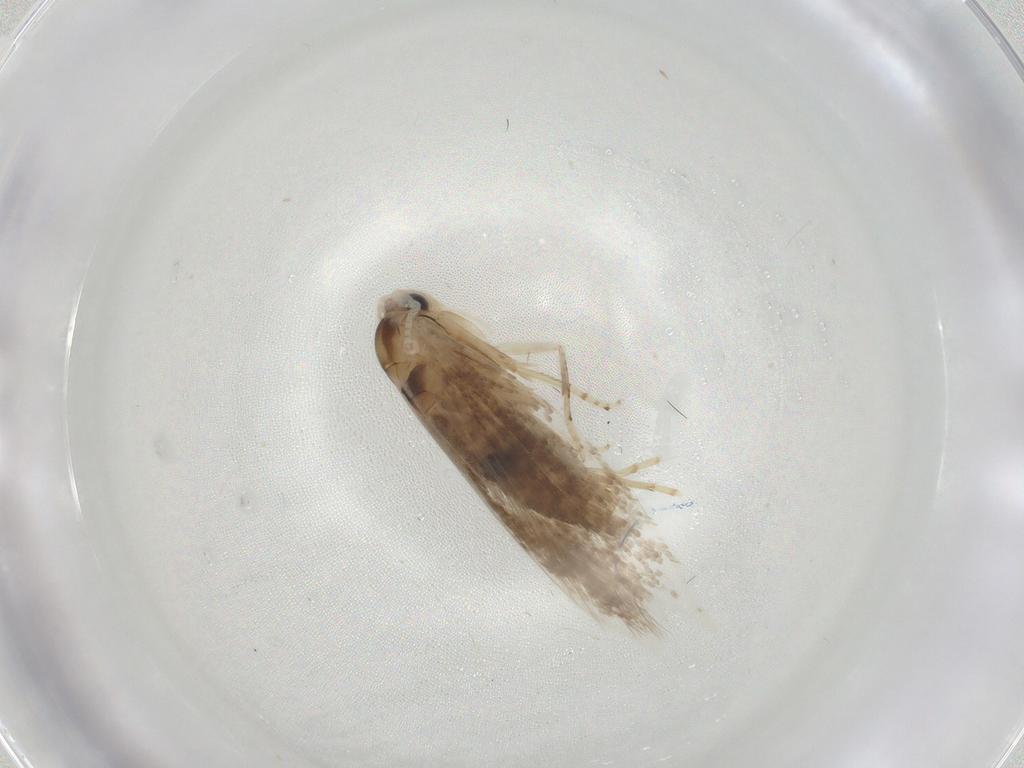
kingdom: Animalia
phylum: Arthropoda
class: Insecta
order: Lepidoptera
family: Bucculatricidae
